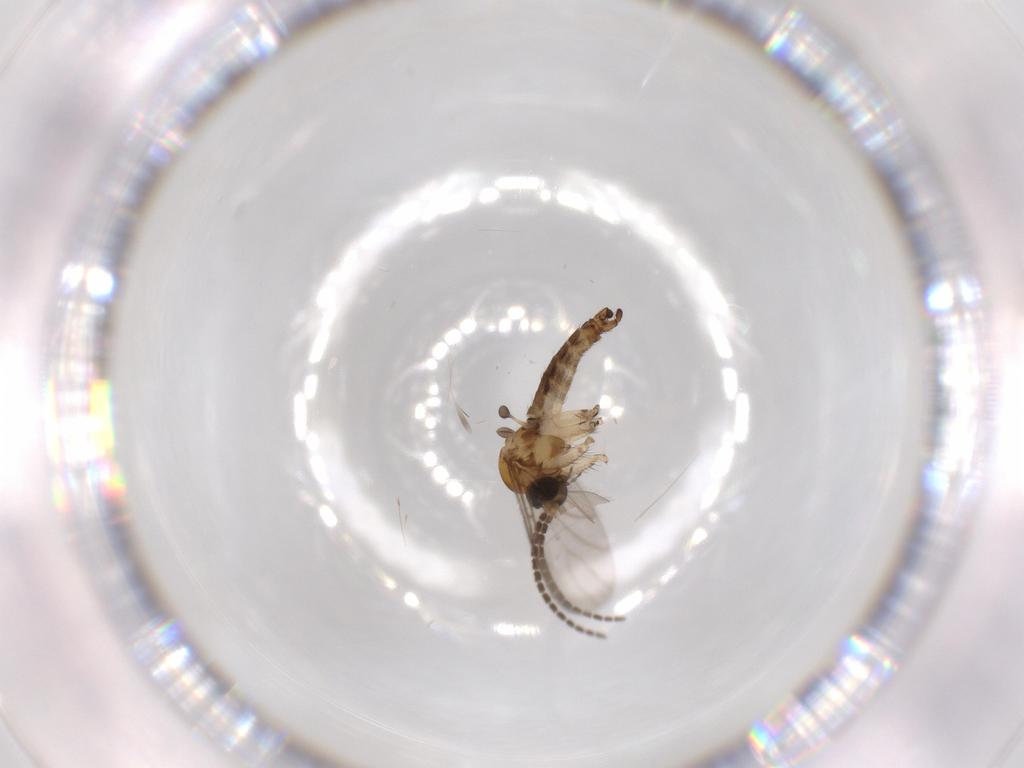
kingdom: Animalia
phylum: Arthropoda
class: Insecta
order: Diptera
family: Sciaridae
